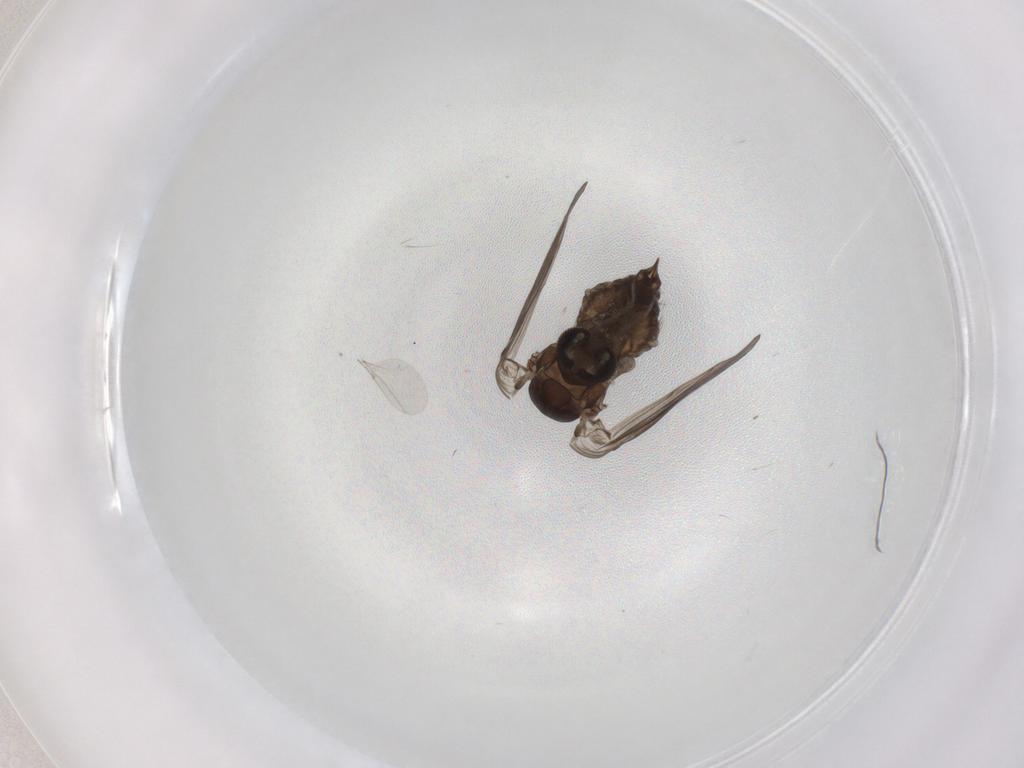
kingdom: Animalia
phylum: Arthropoda
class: Insecta
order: Diptera
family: Psychodidae
